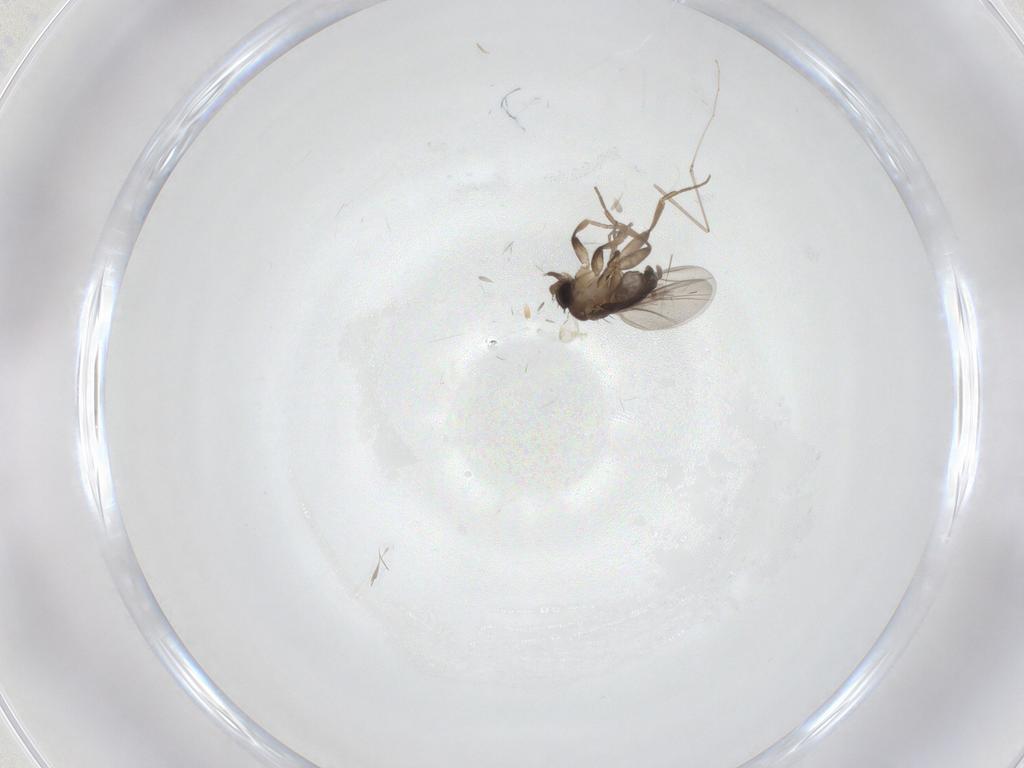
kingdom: Animalia
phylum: Arthropoda
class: Insecta
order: Diptera
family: Cecidomyiidae
